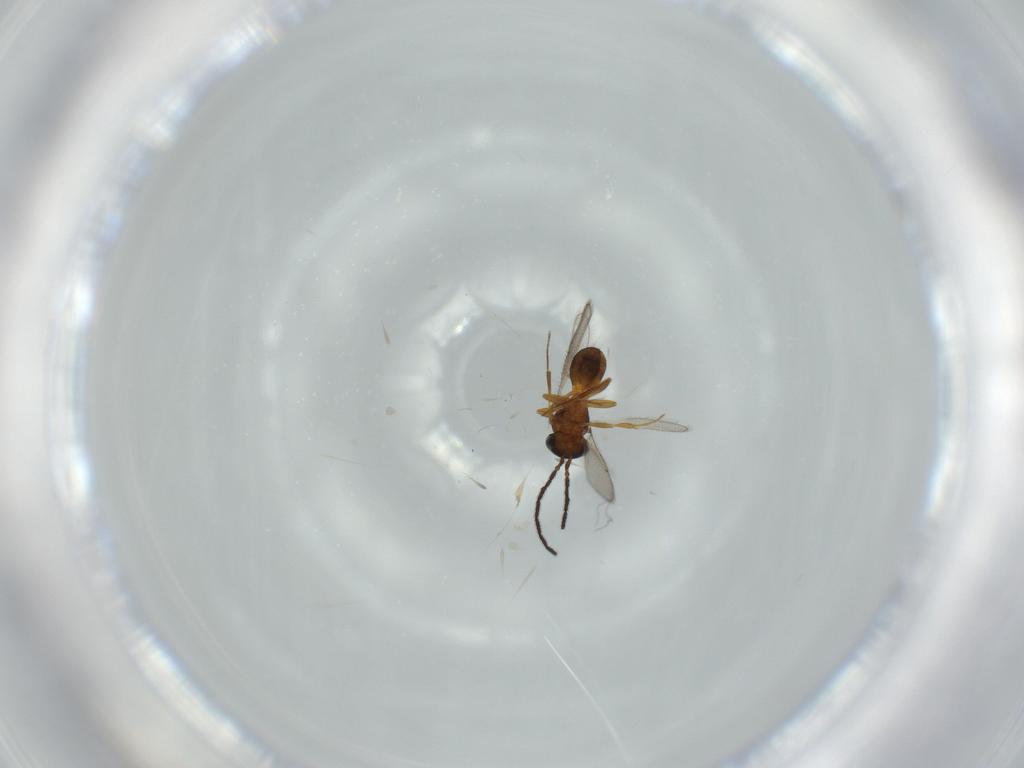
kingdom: Animalia
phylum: Arthropoda
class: Insecta
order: Hymenoptera
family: Scelionidae
